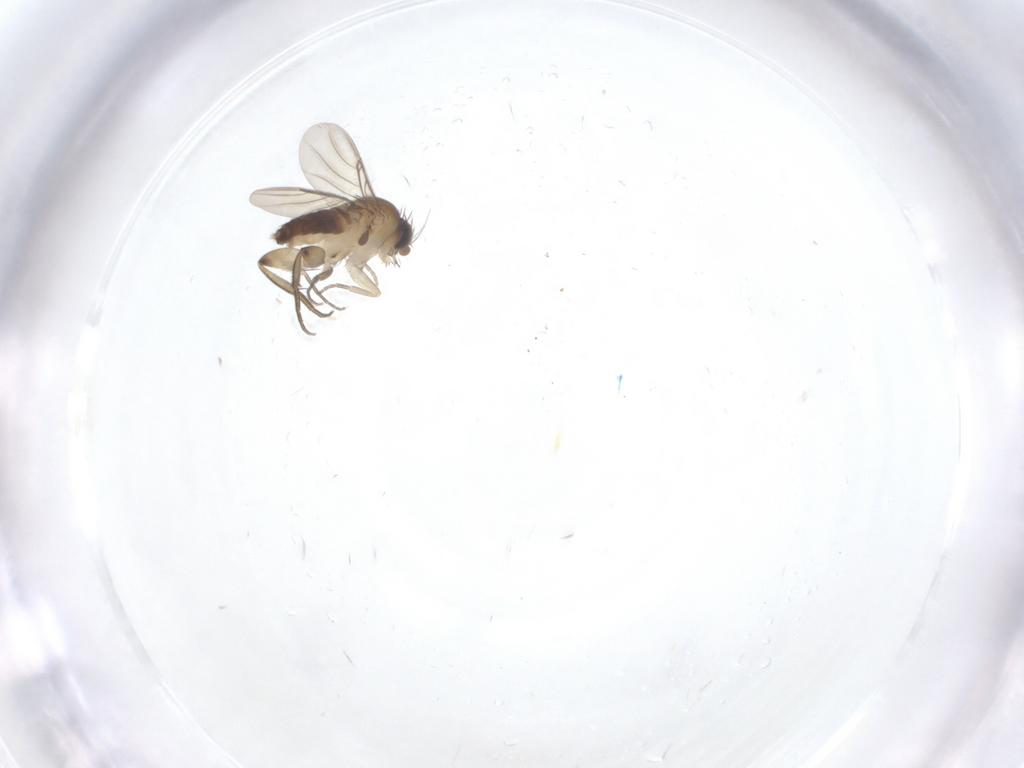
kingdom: Animalia
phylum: Arthropoda
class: Insecta
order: Diptera
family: Phoridae
